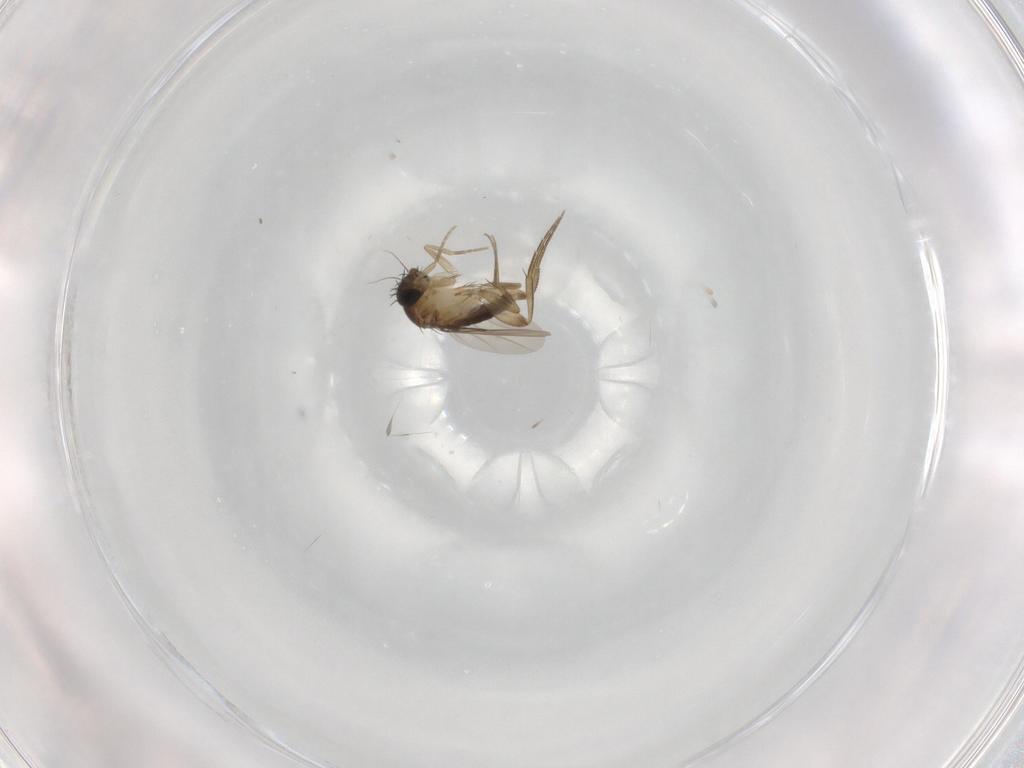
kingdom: Animalia
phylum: Arthropoda
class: Insecta
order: Diptera
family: Phoridae
